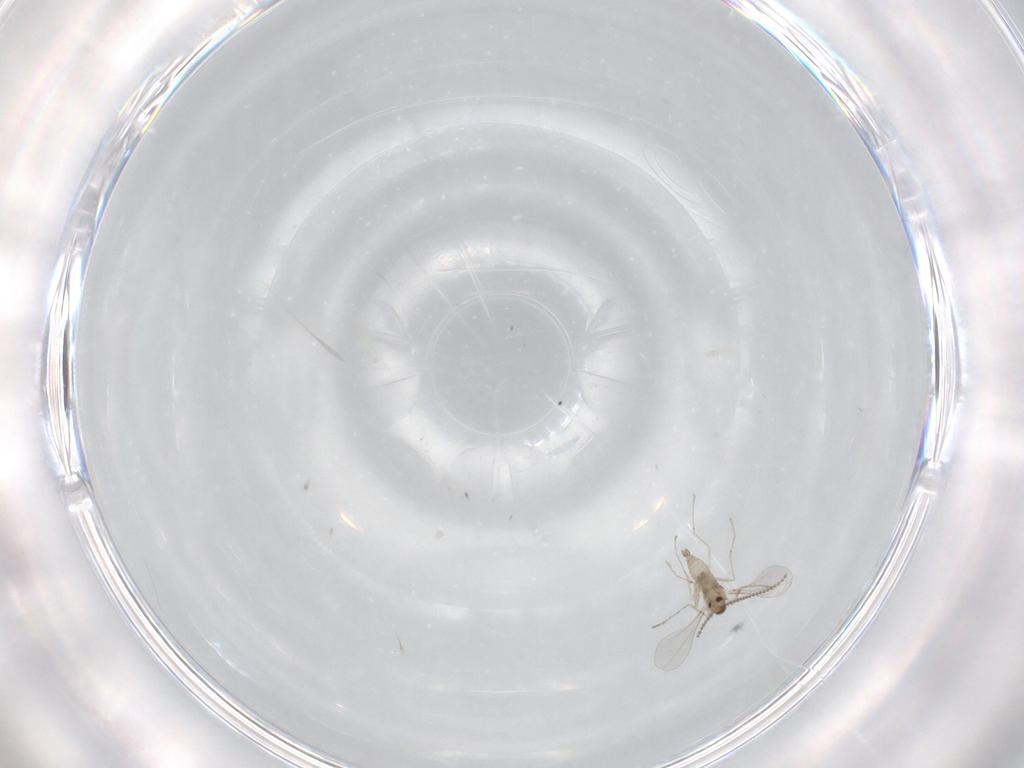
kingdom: Animalia
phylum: Arthropoda
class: Insecta
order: Diptera
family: Cecidomyiidae
